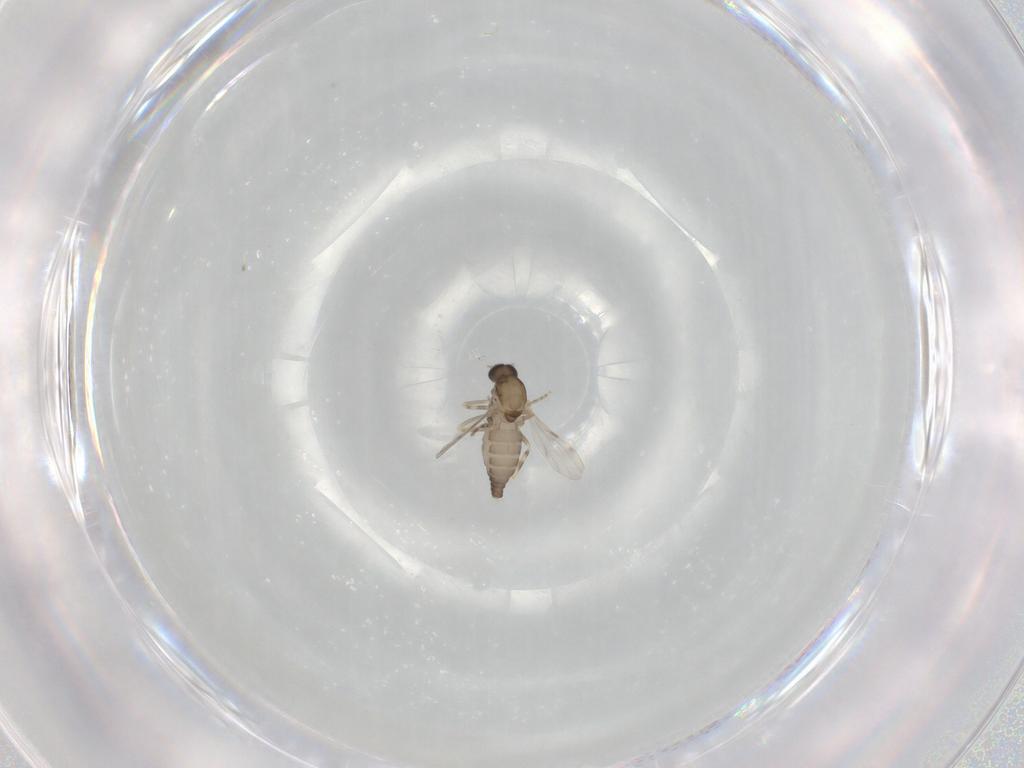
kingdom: Animalia
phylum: Arthropoda
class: Insecta
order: Diptera
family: Ceratopogonidae
